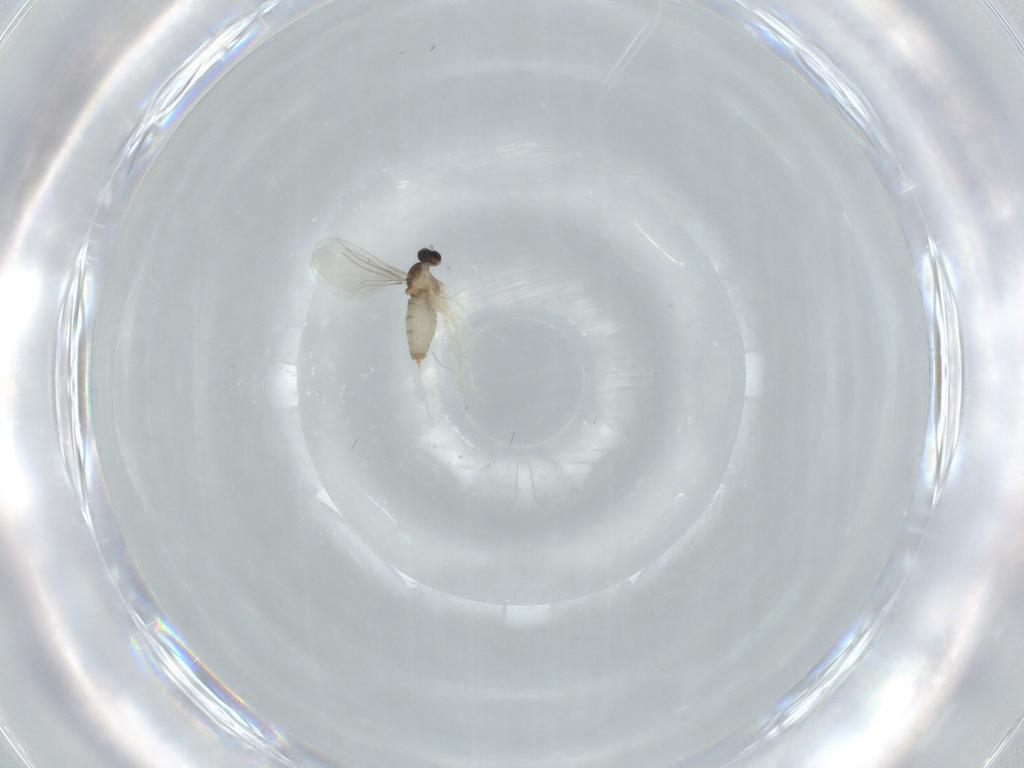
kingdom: Animalia
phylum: Arthropoda
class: Insecta
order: Diptera
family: Cecidomyiidae
